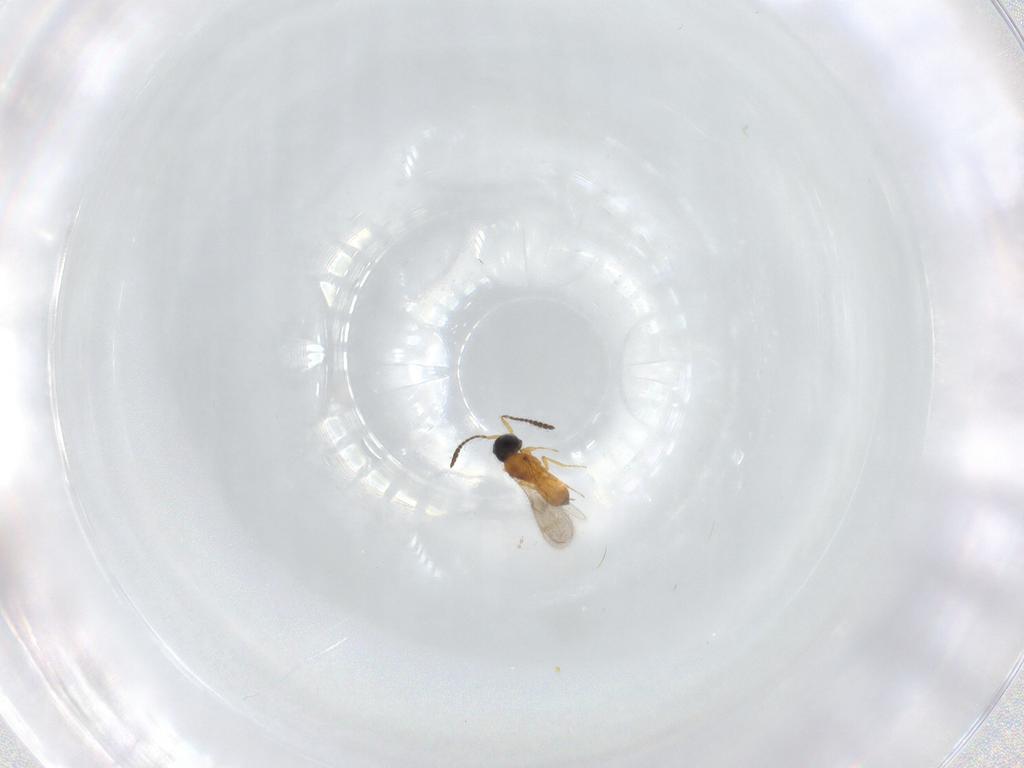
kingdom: Animalia
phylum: Arthropoda
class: Insecta
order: Hymenoptera
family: Scelionidae
